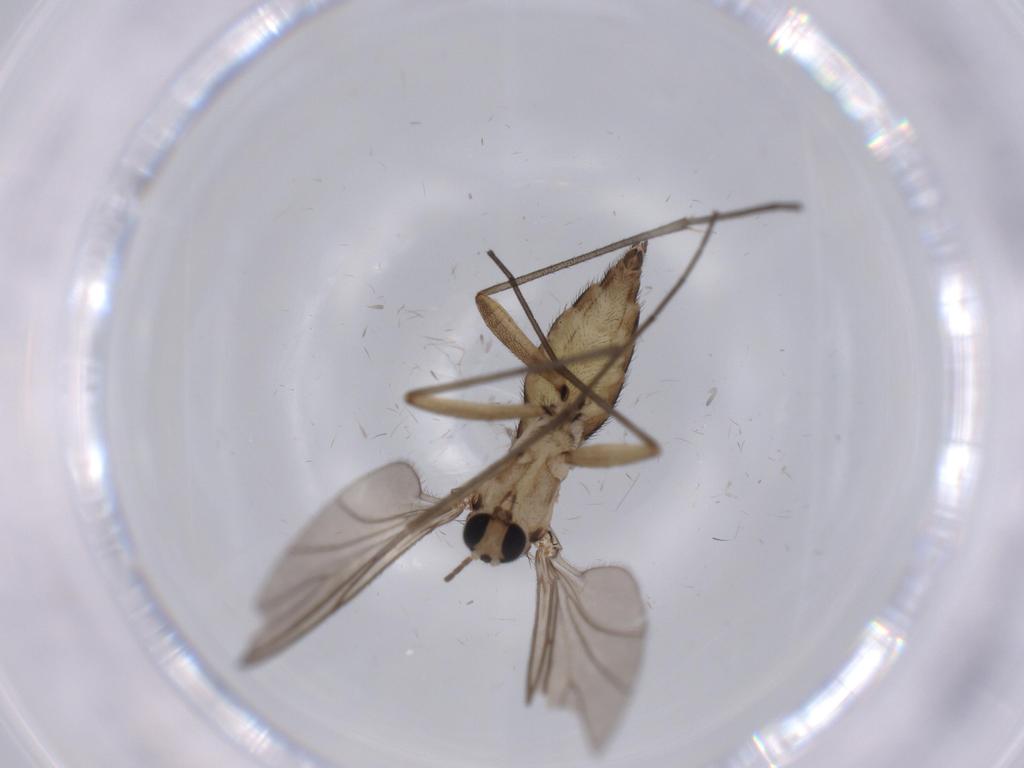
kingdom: Animalia
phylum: Arthropoda
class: Insecta
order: Diptera
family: Sciaridae
